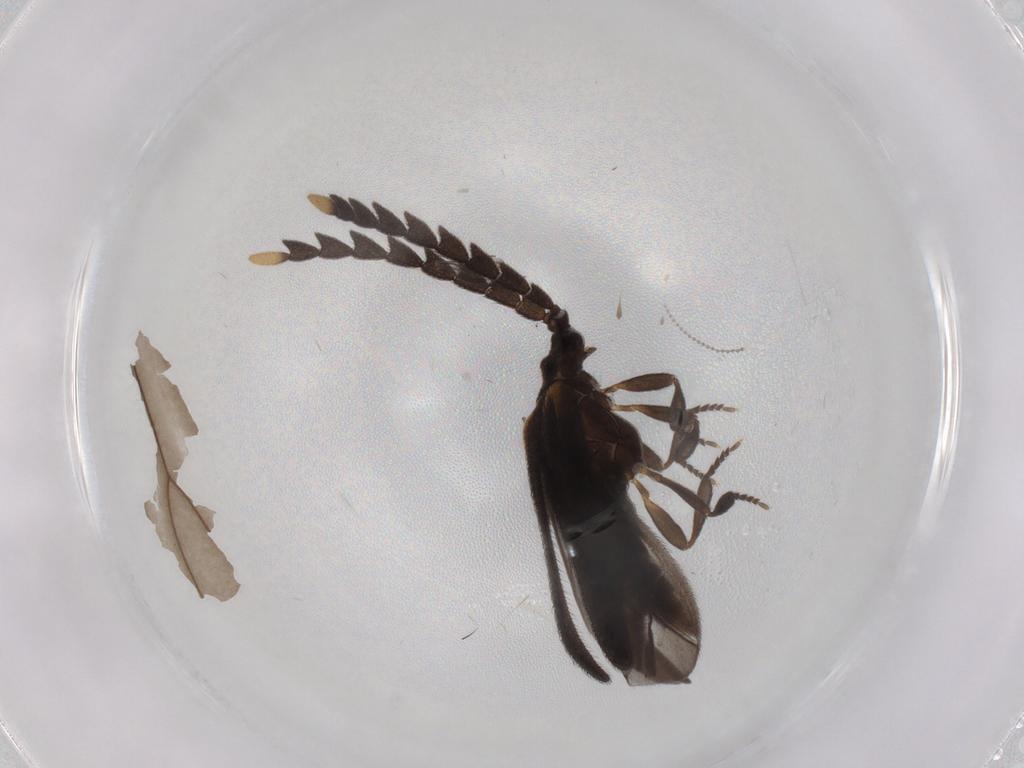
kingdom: Animalia
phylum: Arthropoda
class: Insecta
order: Coleoptera
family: Lycidae
